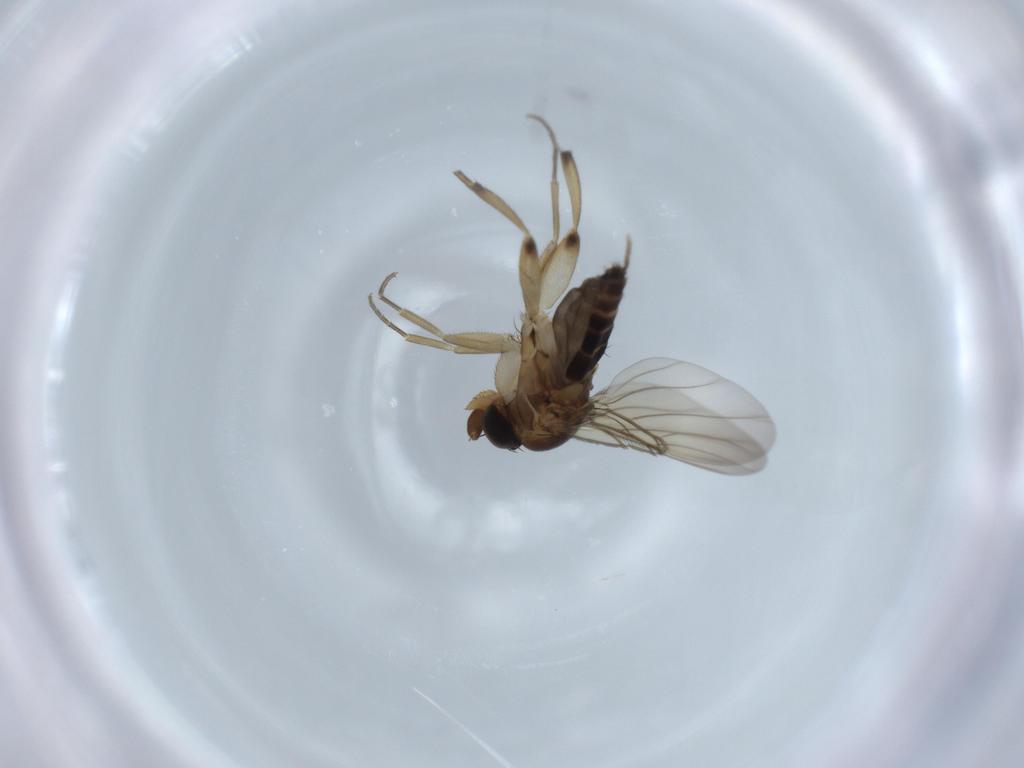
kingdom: Animalia
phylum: Arthropoda
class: Insecta
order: Diptera
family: Phoridae
